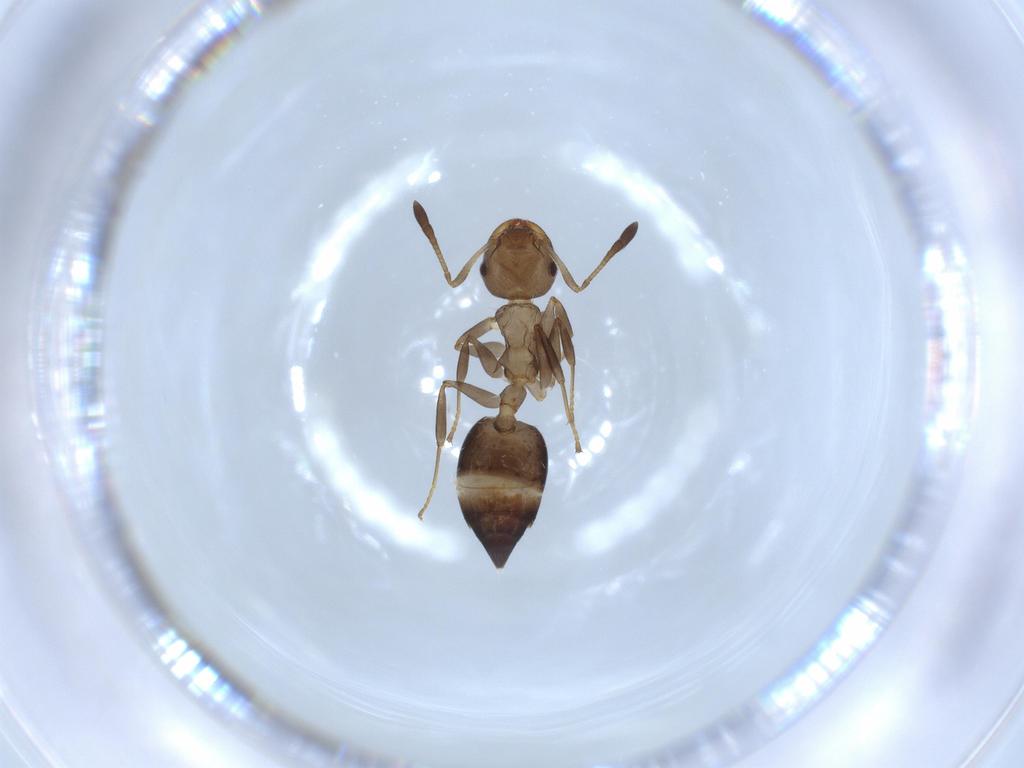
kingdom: Animalia
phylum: Arthropoda
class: Insecta
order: Hymenoptera
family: Formicidae
